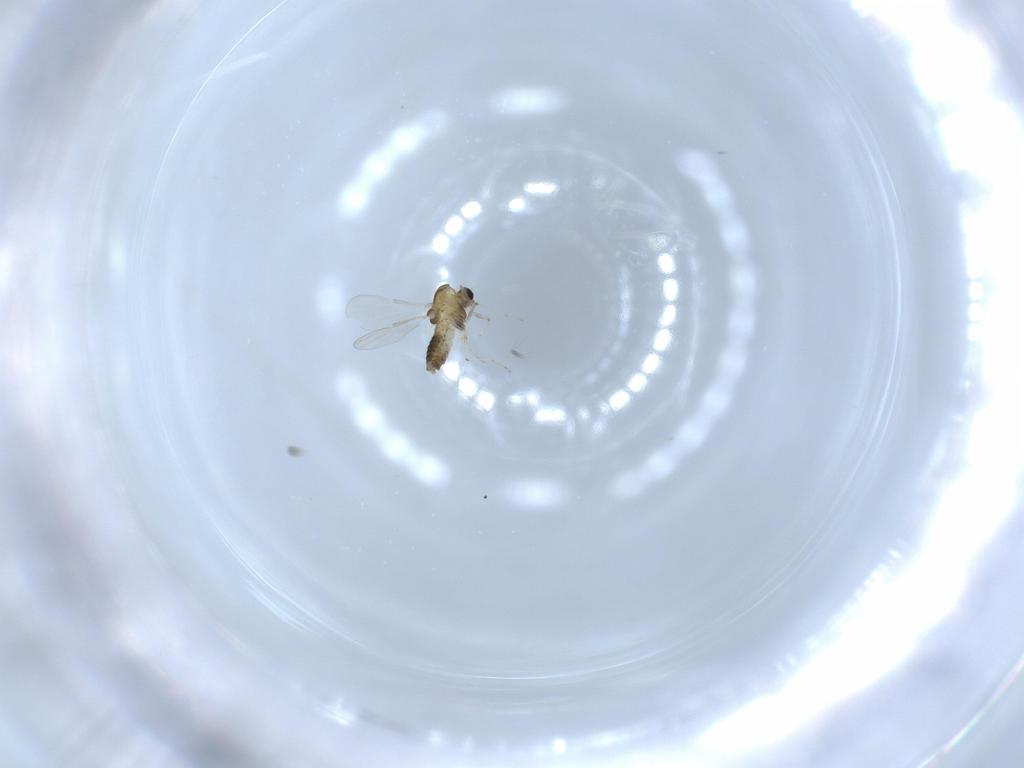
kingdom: Animalia
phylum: Arthropoda
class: Insecta
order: Diptera
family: Chironomidae
